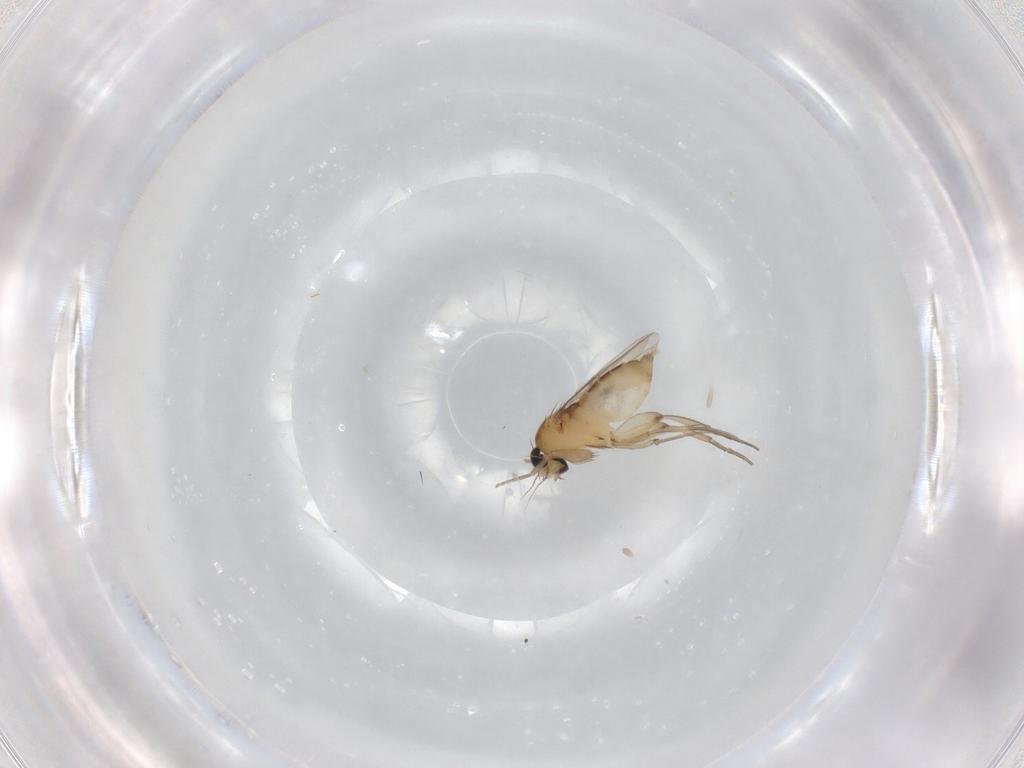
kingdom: Animalia
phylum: Arthropoda
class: Insecta
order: Diptera
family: Phoridae
